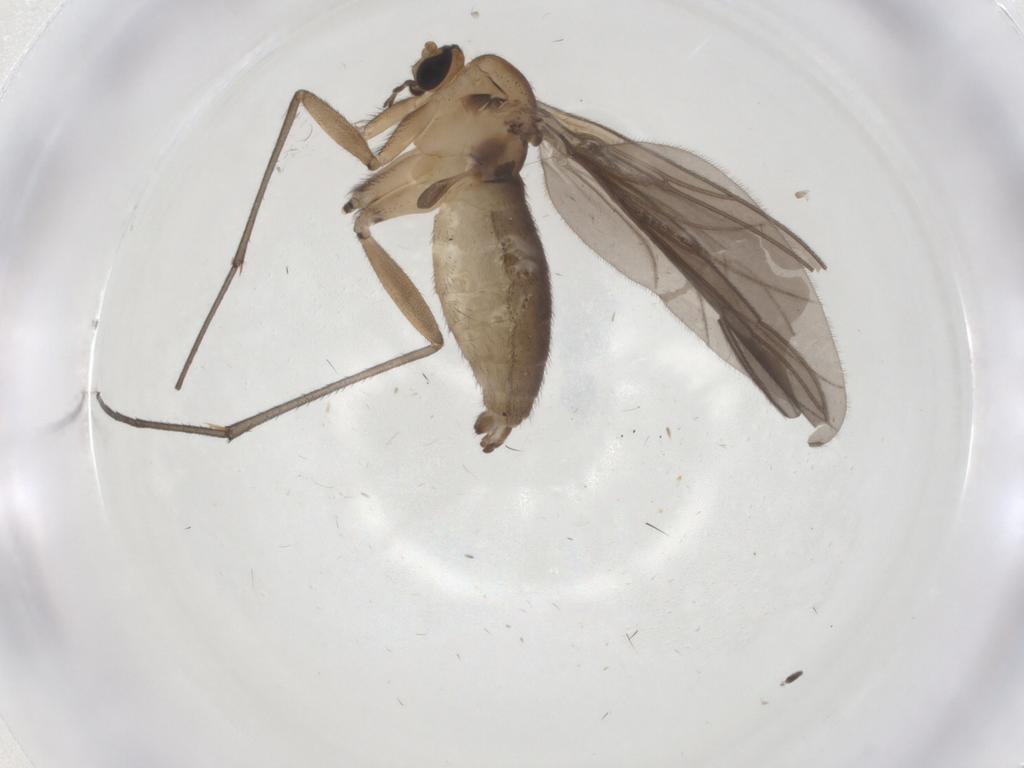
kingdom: Animalia
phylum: Arthropoda
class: Insecta
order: Diptera
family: Sciaridae
